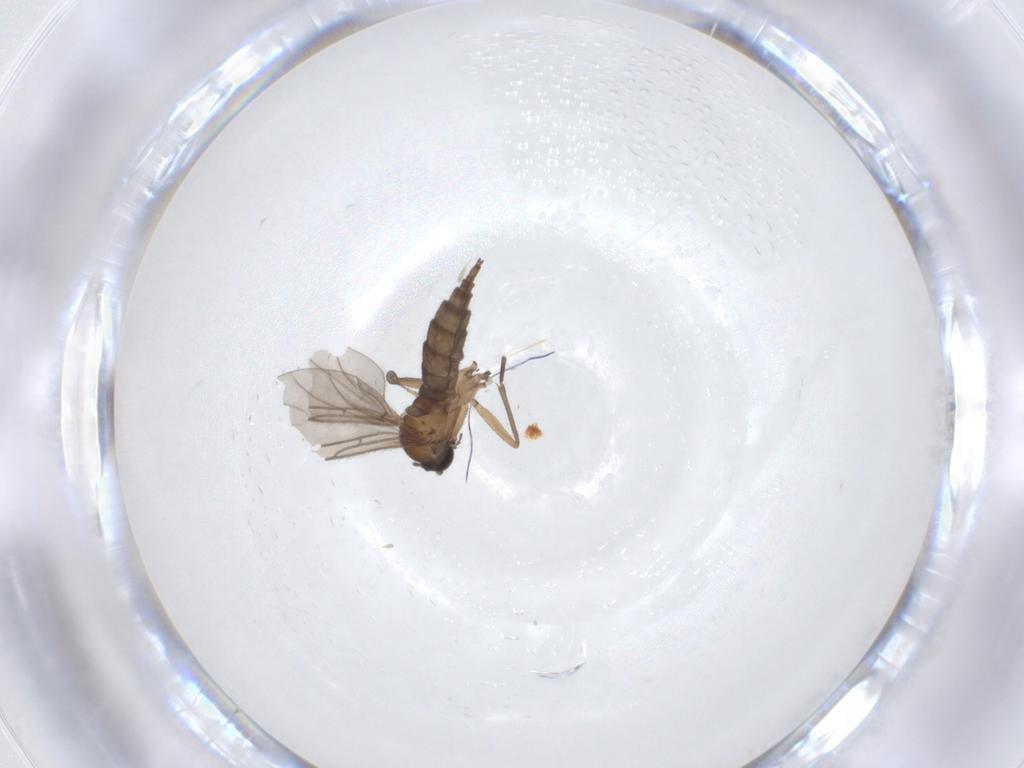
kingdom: Animalia
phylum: Arthropoda
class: Insecta
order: Diptera
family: Sciaridae
